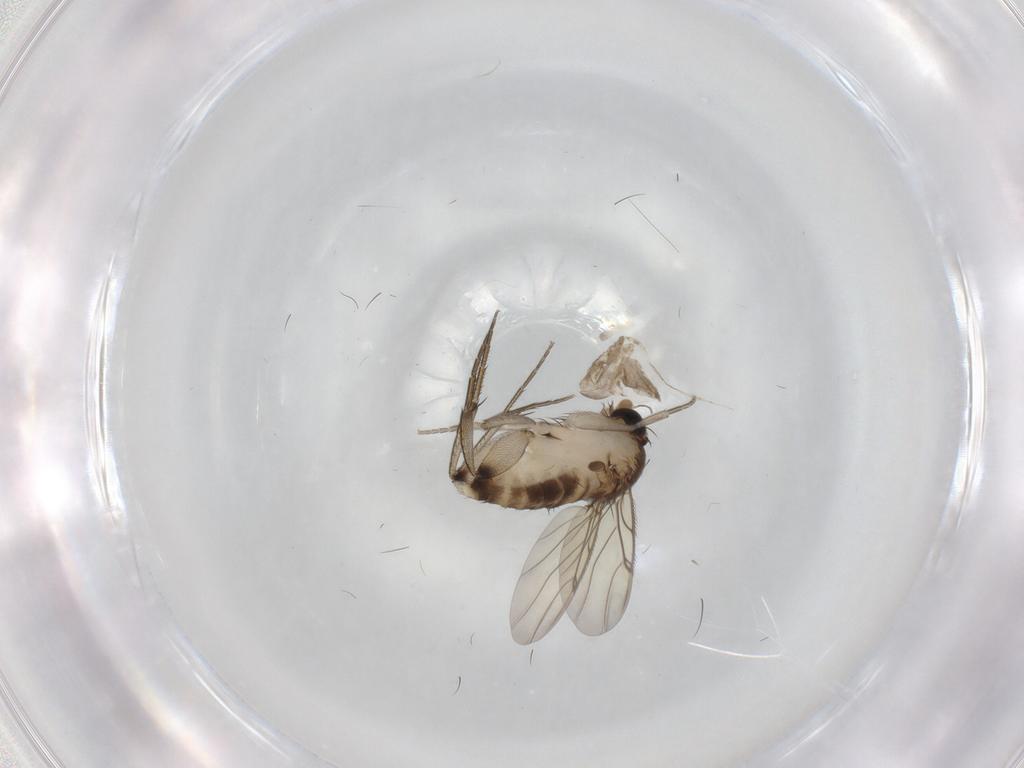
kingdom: Animalia
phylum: Arthropoda
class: Insecta
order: Diptera
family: Phoridae
